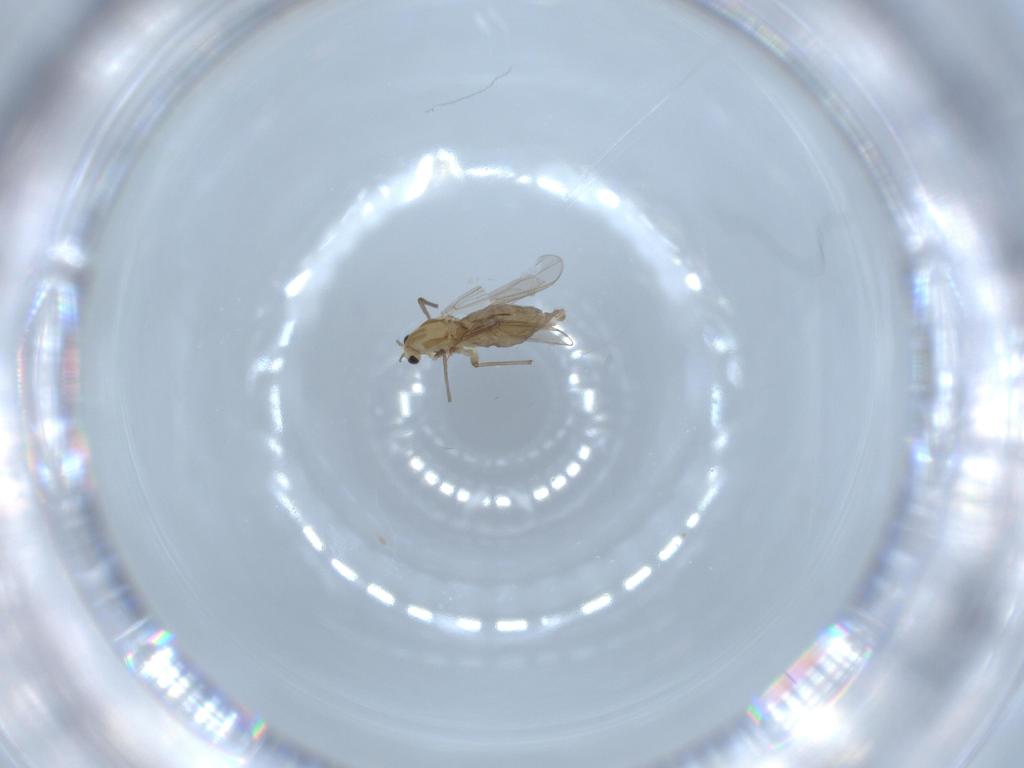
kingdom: Animalia
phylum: Arthropoda
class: Insecta
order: Diptera
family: Chironomidae
